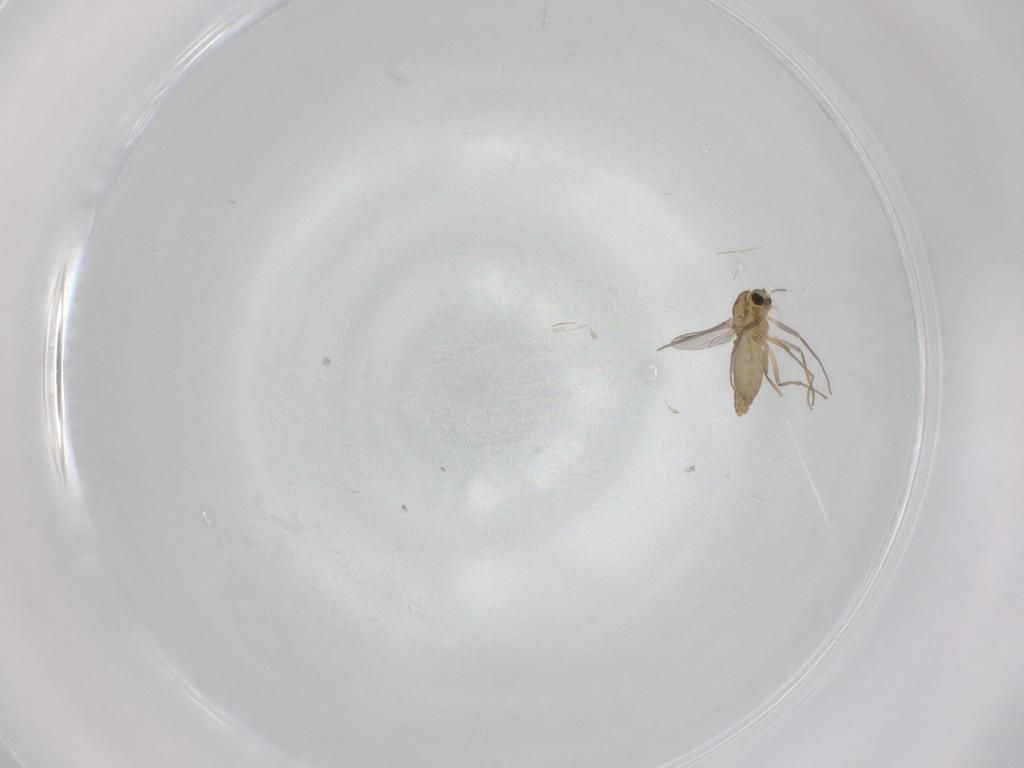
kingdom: Animalia
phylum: Arthropoda
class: Insecta
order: Diptera
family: Chironomidae
